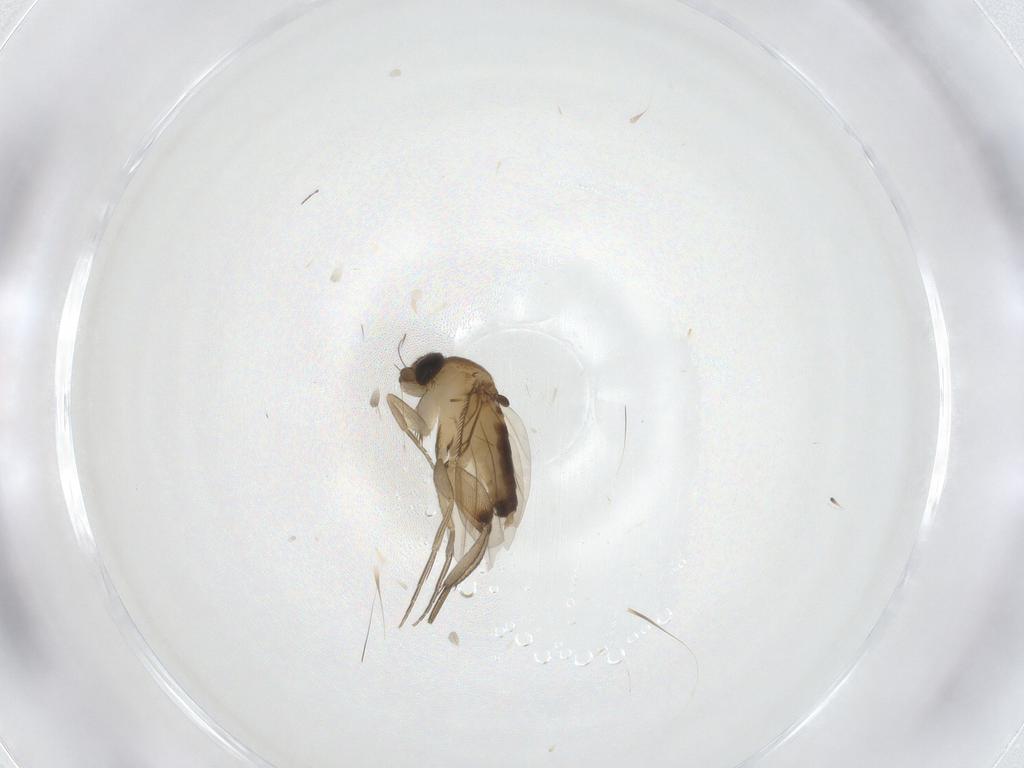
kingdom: Animalia
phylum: Arthropoda
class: Insecta
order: Diptera
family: Phoridae
